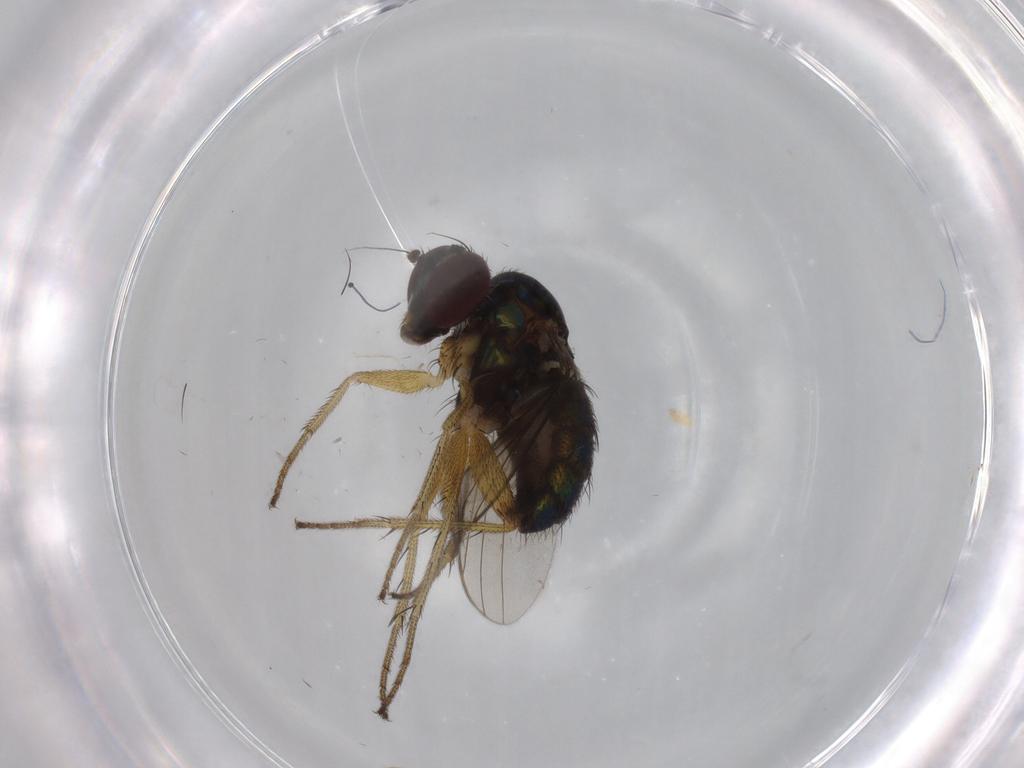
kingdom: Animalia
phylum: Arthropoda
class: Insecta
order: Diptera
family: Dolichopodidae
